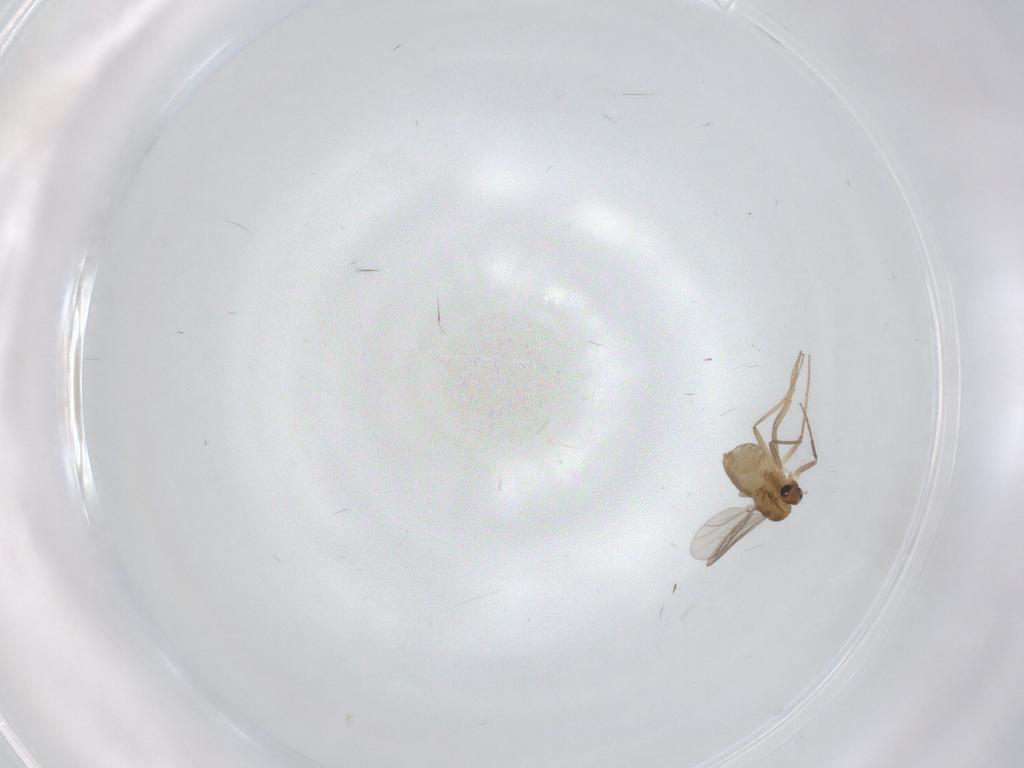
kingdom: Animalia
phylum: Arthropoda
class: Insecta
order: Diptera
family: Chironomidae
